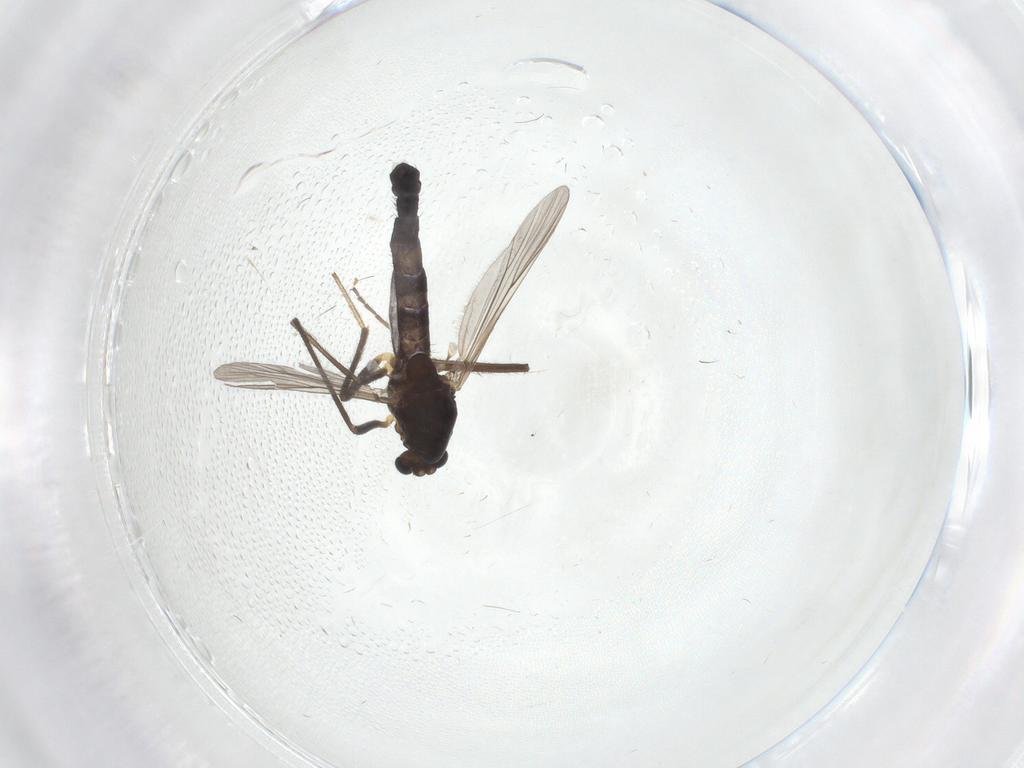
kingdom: Animalia
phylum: Arthropoda
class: Insecta
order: Diptera
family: Chironomidae
